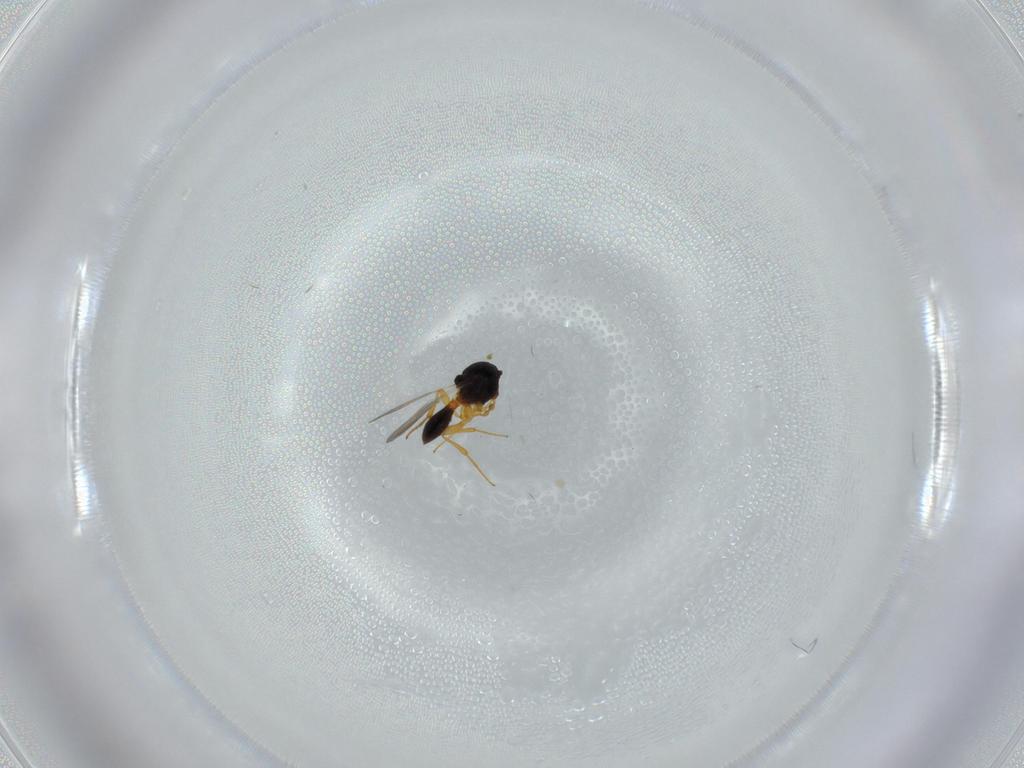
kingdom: Animalia
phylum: Arthropoda
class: Insecta
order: Hymenoptera
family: Platygastridae
